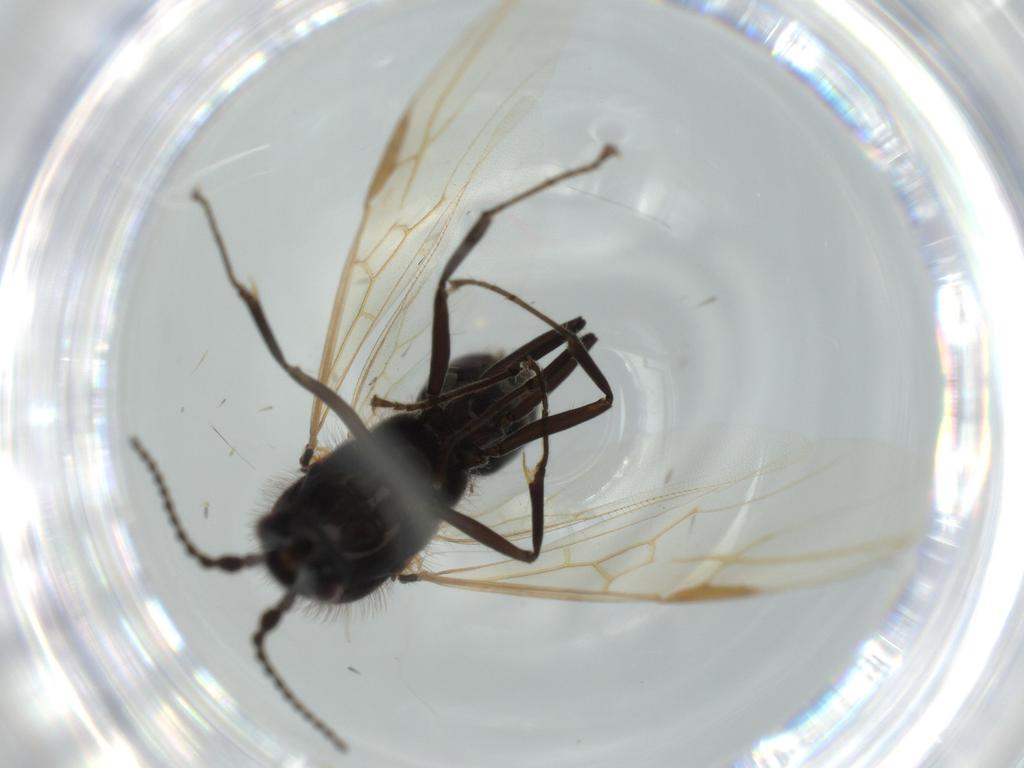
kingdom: Animalia
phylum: Arthropoda
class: Insecta
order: Hymenoptera
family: Formicidae
